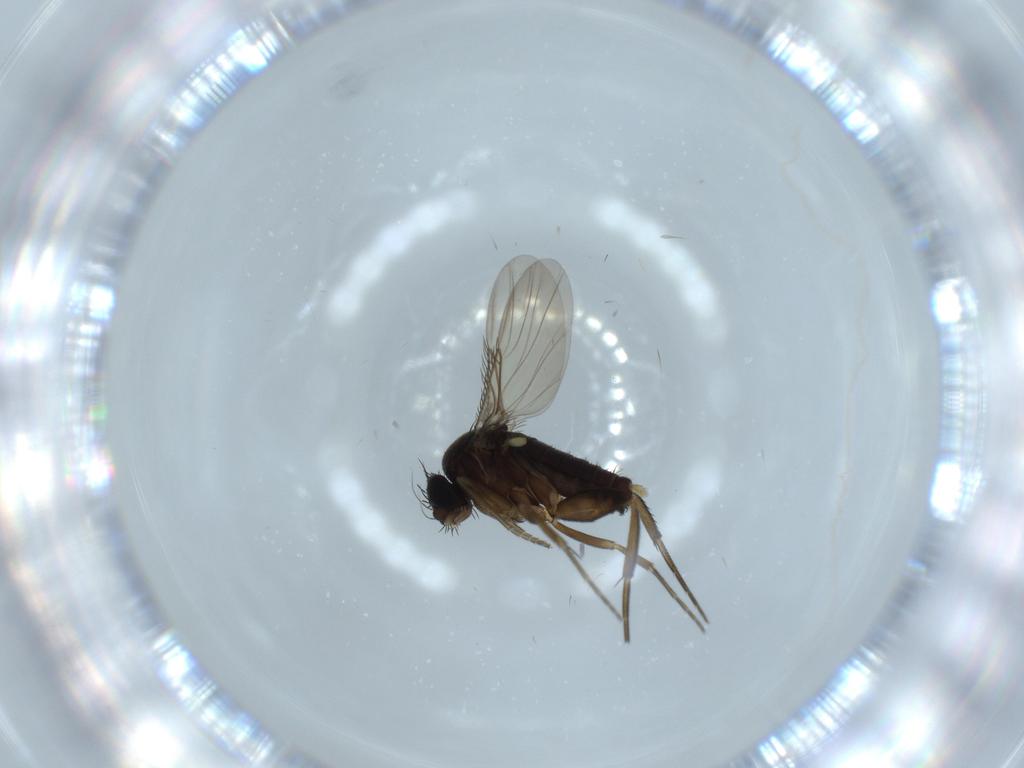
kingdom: Animalia
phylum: Arthropoda
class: Insecta
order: Diptera
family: Phoridae
